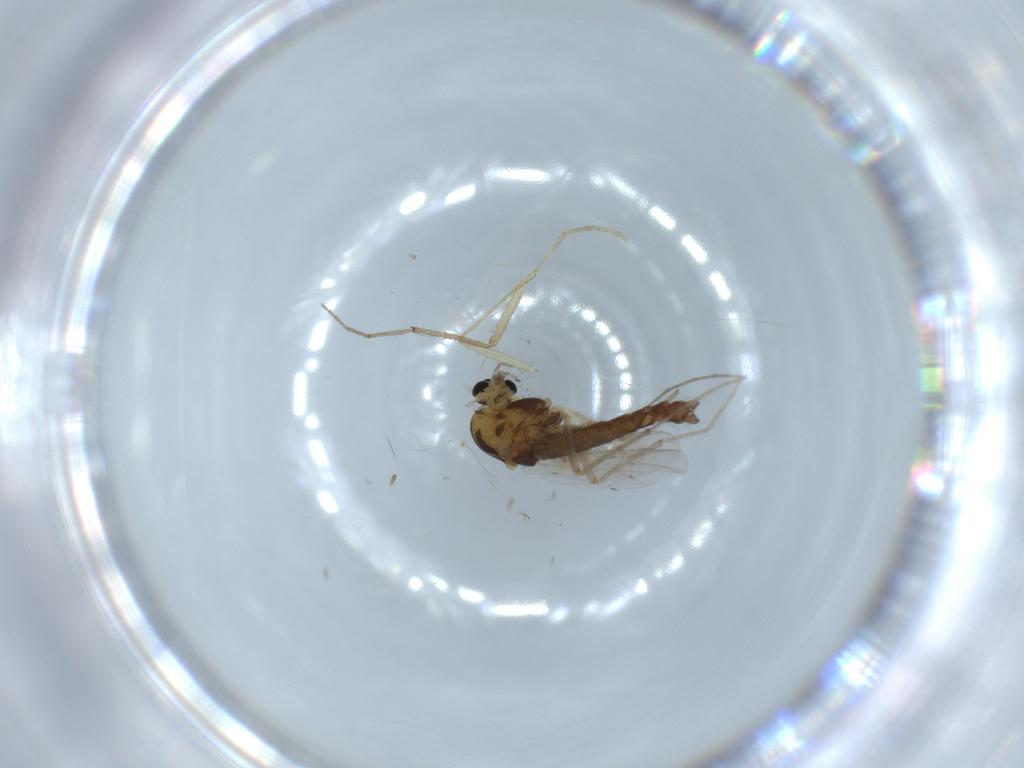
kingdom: Animalia
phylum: Arthropoda
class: Insecta
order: Diptera
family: Chironomidae
